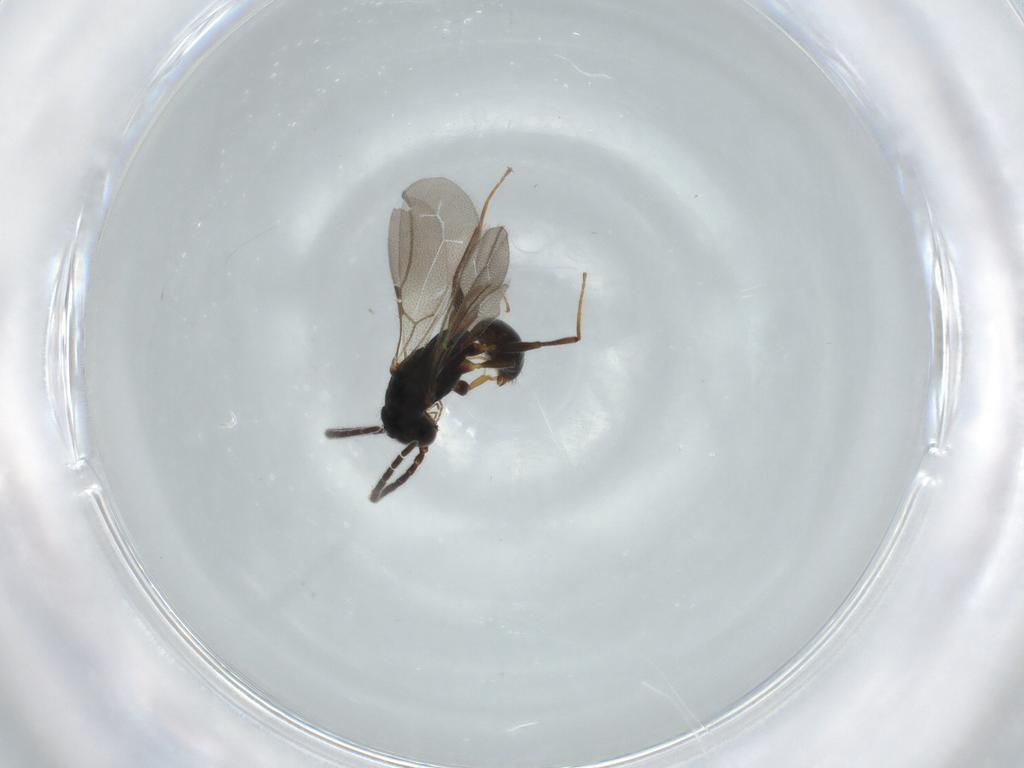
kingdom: Animalia
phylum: Arthropoda
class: Insecta
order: Hymenoptera
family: Bethylidae
